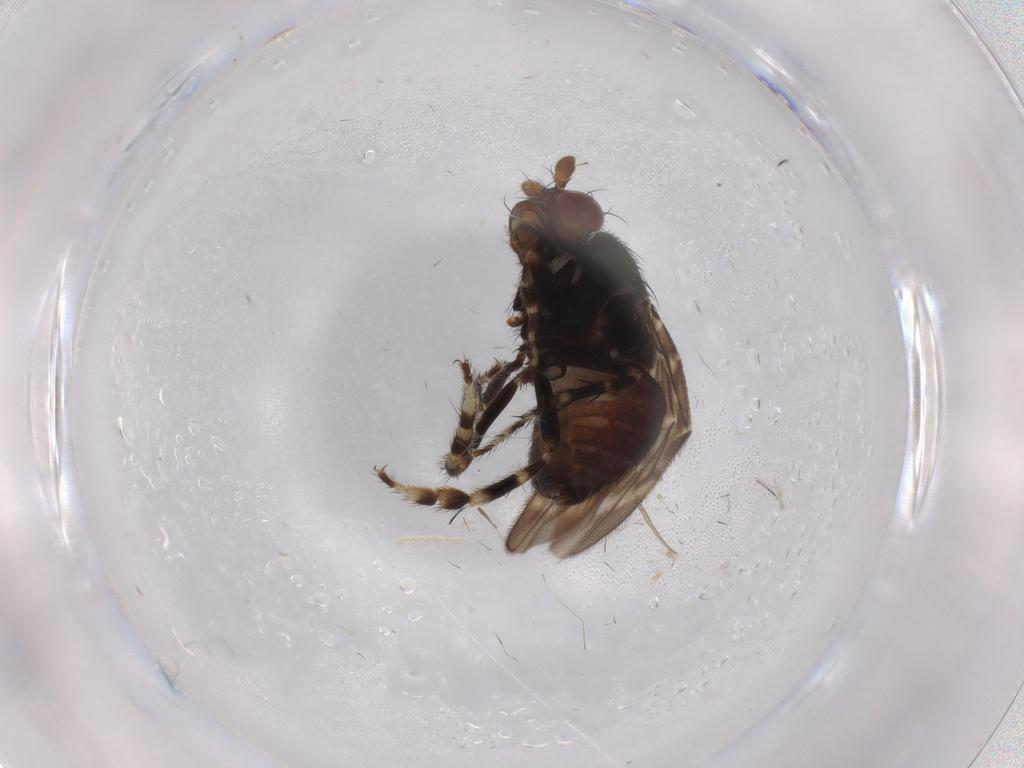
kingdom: Animalia
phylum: Arthropoda
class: Insecta
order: Diptera
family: Sphaeroceridae
